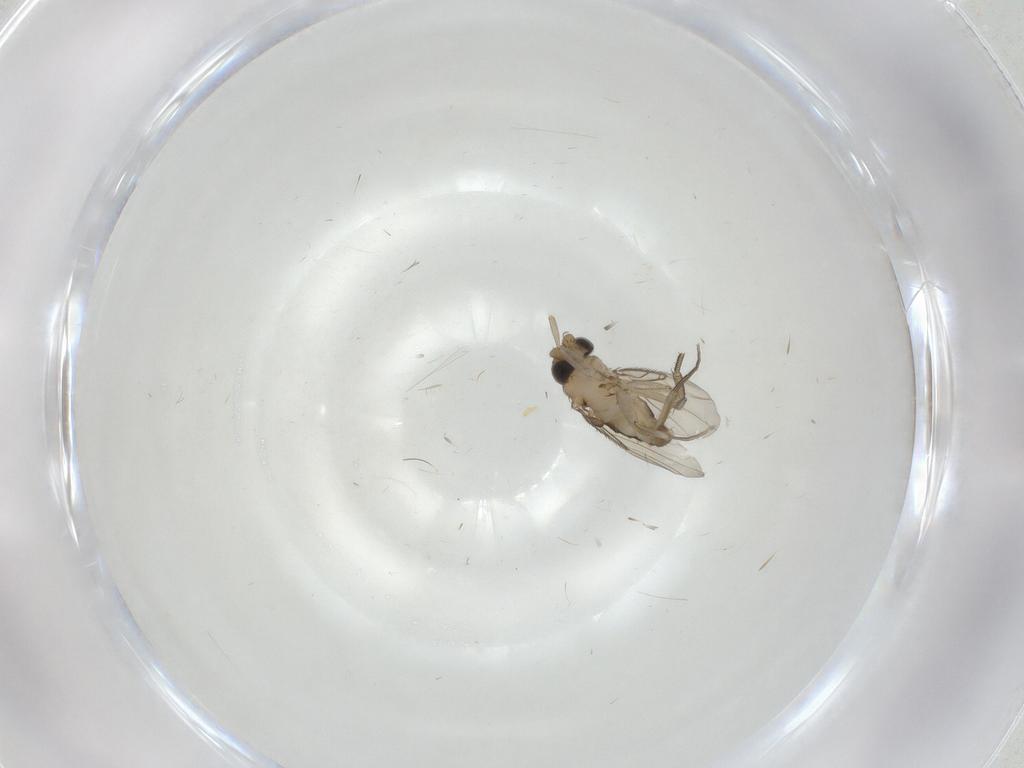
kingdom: Animalia
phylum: Arthropoda
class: Insecta
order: Diptera
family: Phoridae
